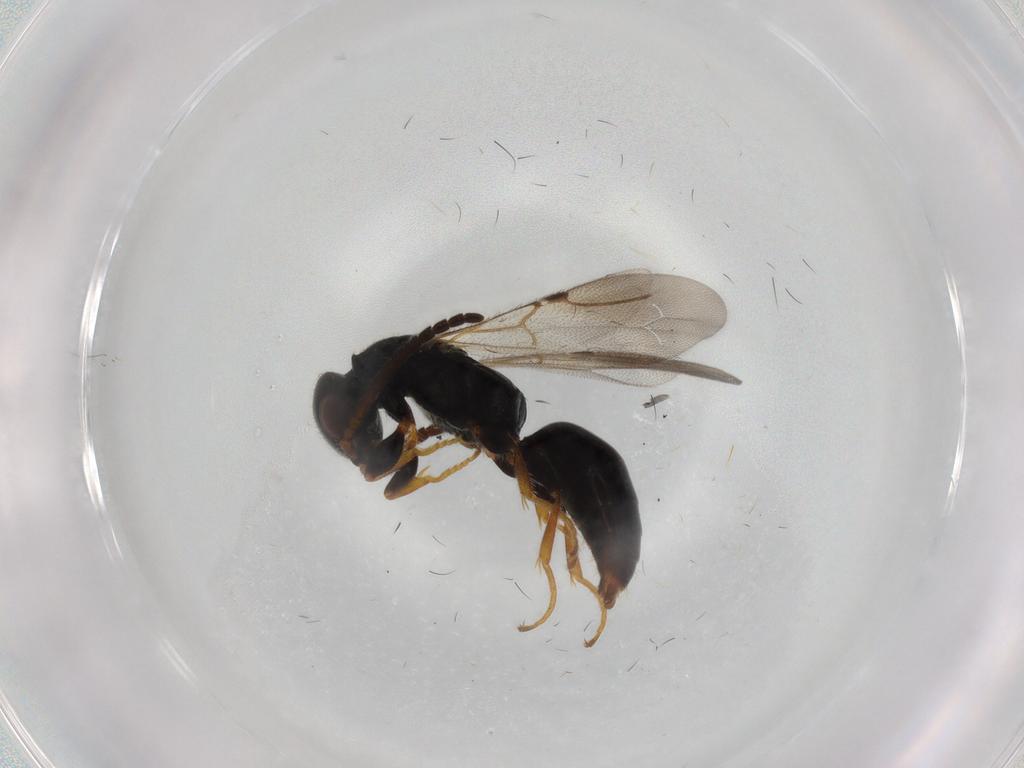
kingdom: Animalia
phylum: Arthropoda
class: Insecta
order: Hymenoptera
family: Bethylidae
